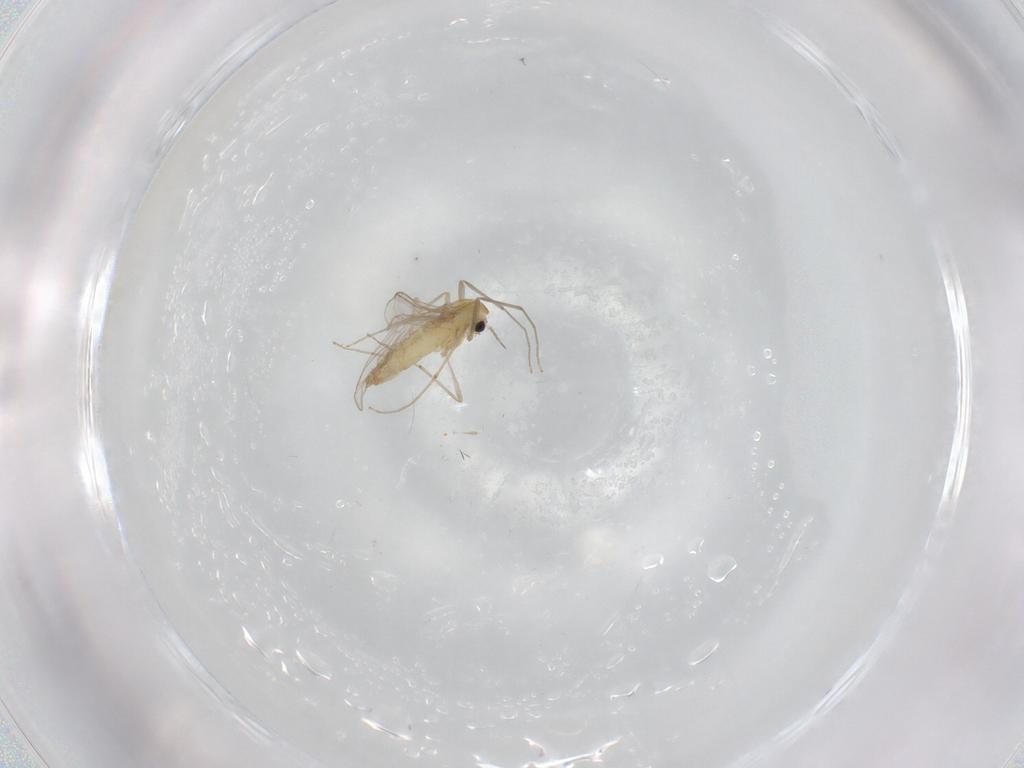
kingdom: Animalia
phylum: Arthropoda
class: Insecta
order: Diptera
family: Chironomidae
